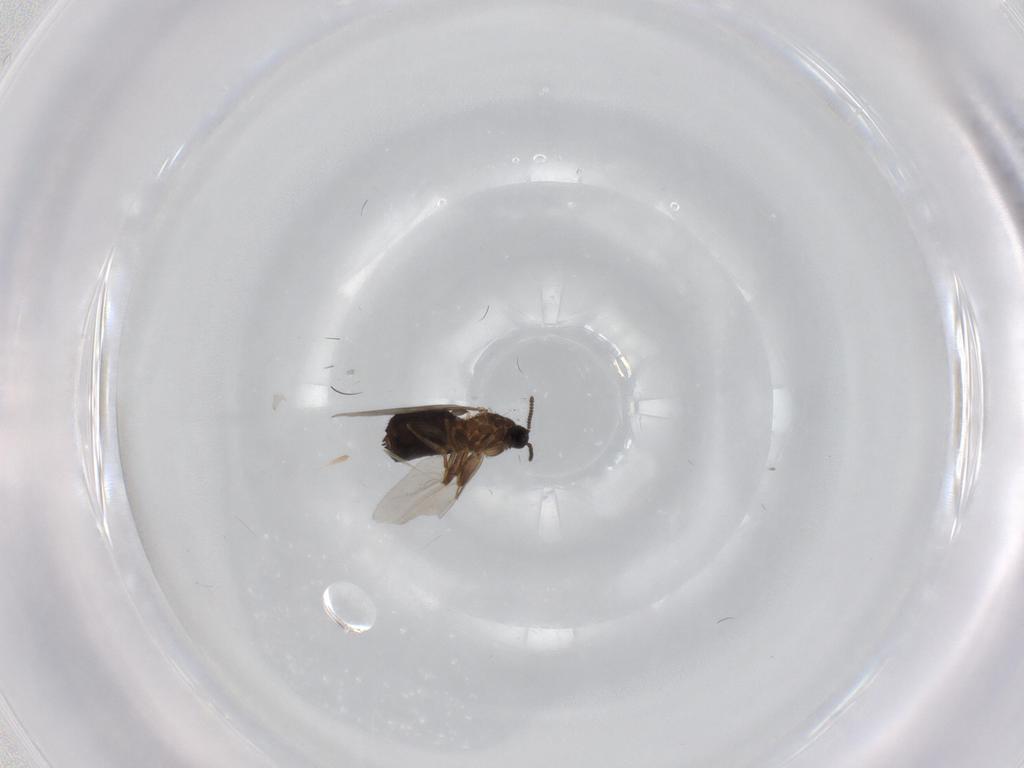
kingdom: Animalia
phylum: Arthropoda
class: Insecta
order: Diptera
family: Scatopsidae
